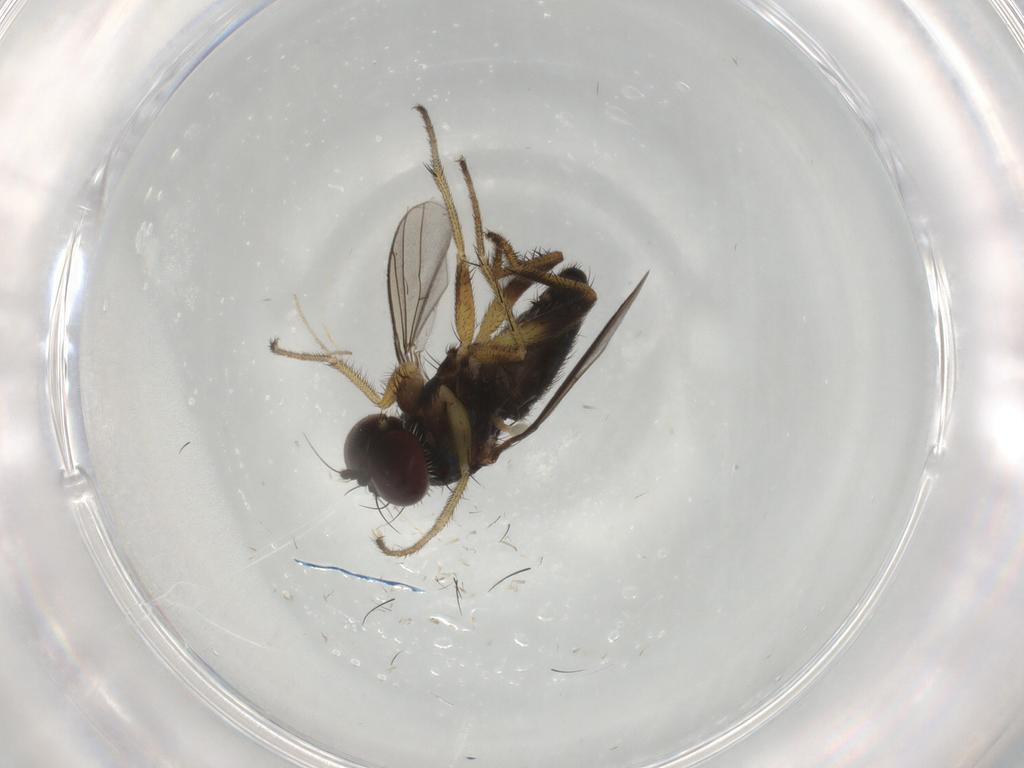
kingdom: Animalia
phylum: Arthropoda
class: Insecta
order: Diptera
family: Dolichopodidae
